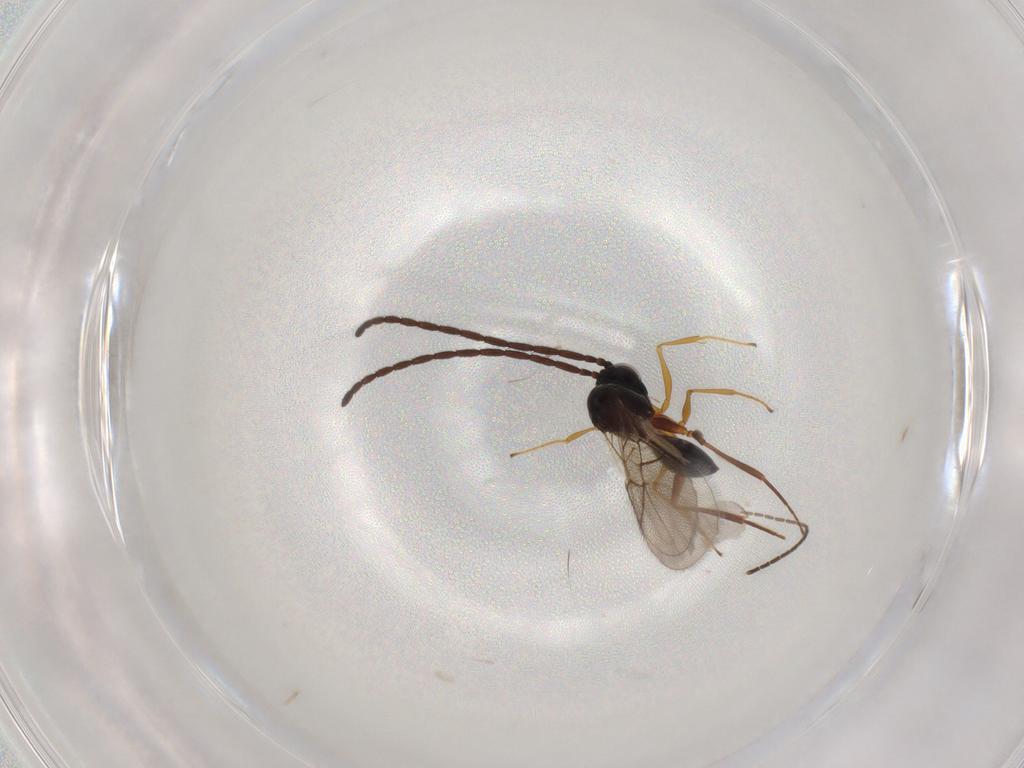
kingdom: Animalia
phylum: Arthropoda
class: Insecta
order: Hymenoptera
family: Figitidae
